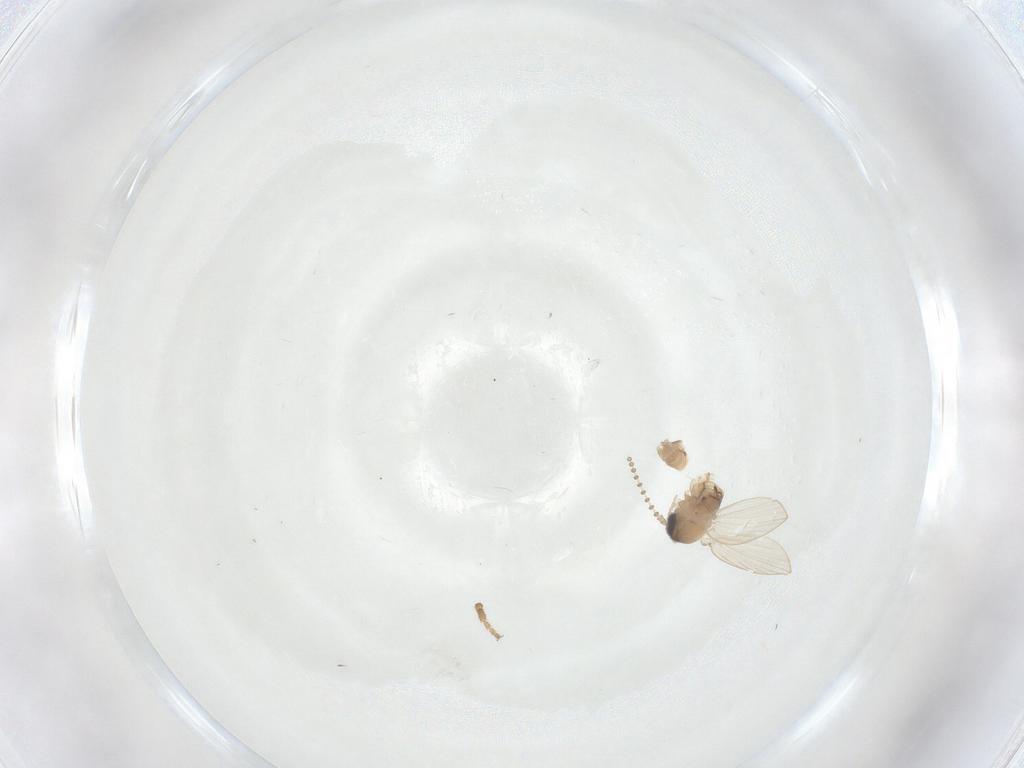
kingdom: Animalia
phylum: Arthropoda
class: Insecta
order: Diptera
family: Psychodidae
